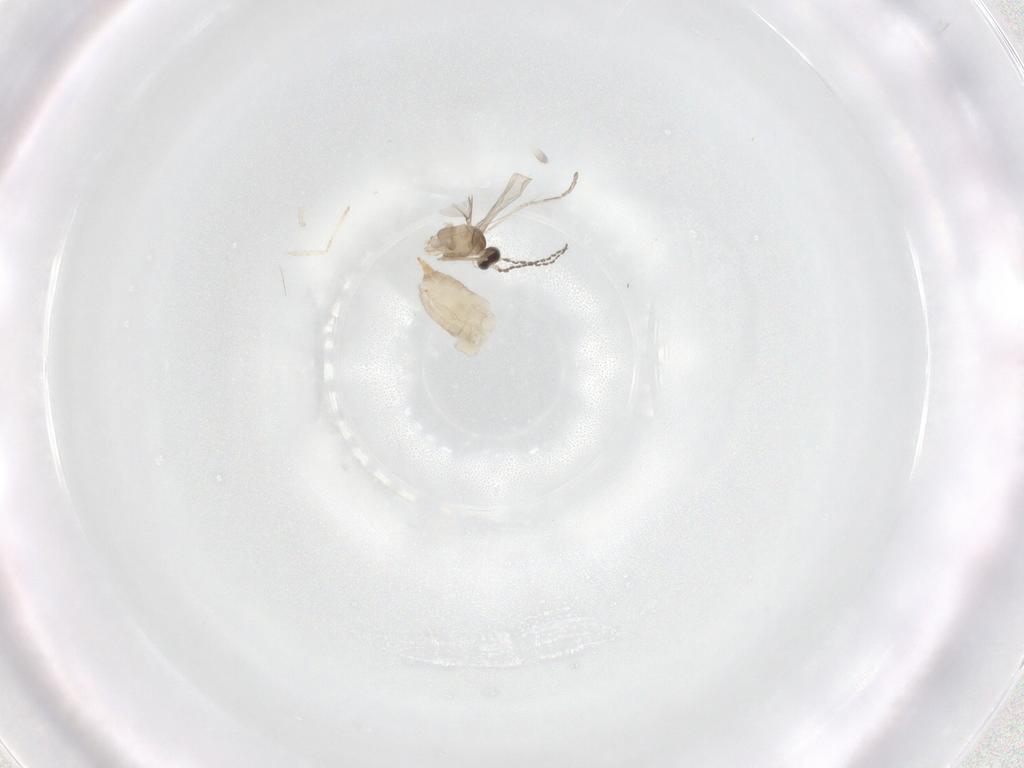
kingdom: Animalia
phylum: Arthropoda
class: Insecta
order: Diptera
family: Cecidomyiidae
